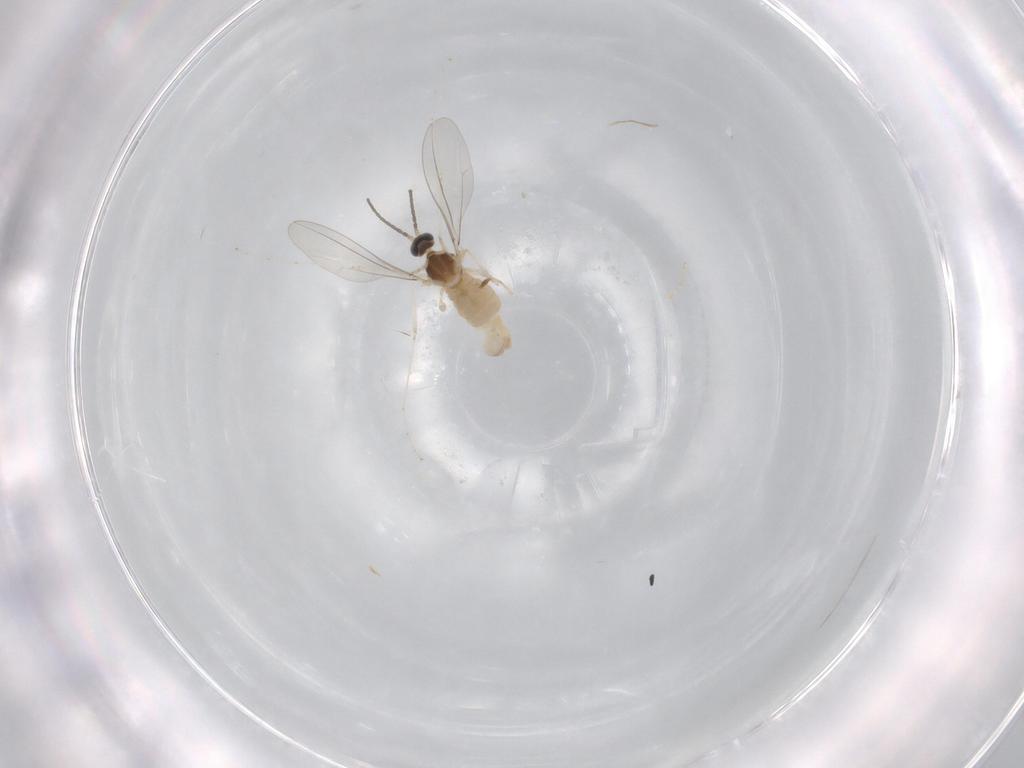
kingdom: Animalia
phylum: Arthropoda
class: Insecta
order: Diptera
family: Cecidomyiidae
